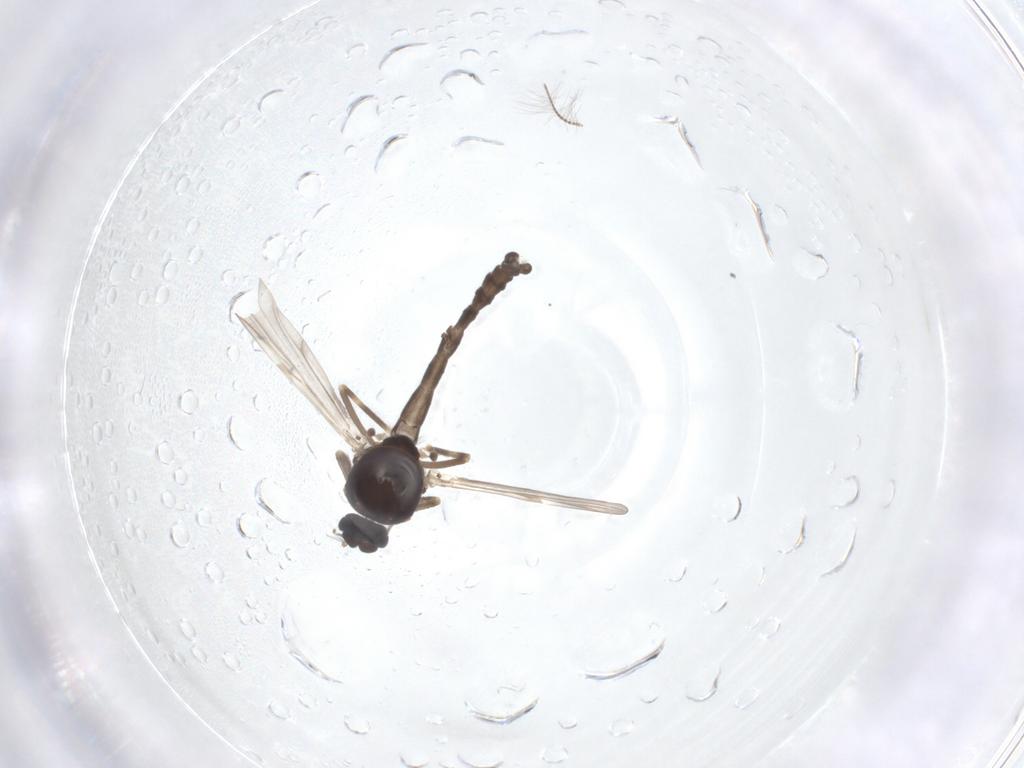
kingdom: Animalia
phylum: Arthropoda
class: Insecta
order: Diptera
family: Ceratopogonidae
